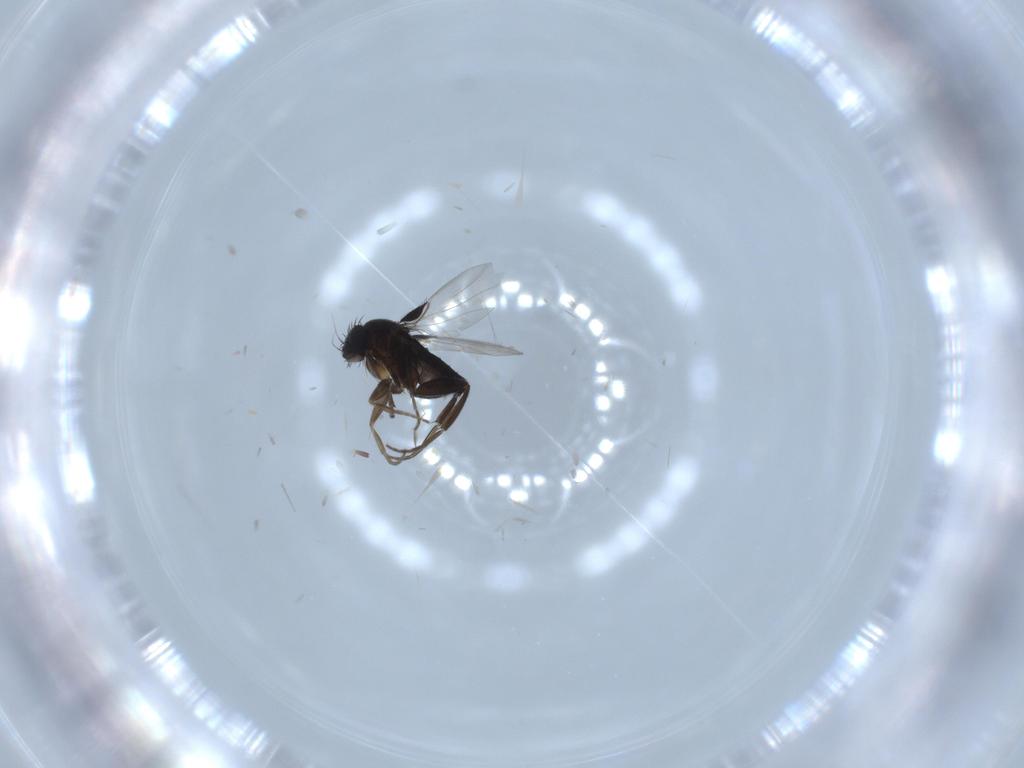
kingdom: Animalia
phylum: Arthropoda
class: Insecta
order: Diptera
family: Phoridae
